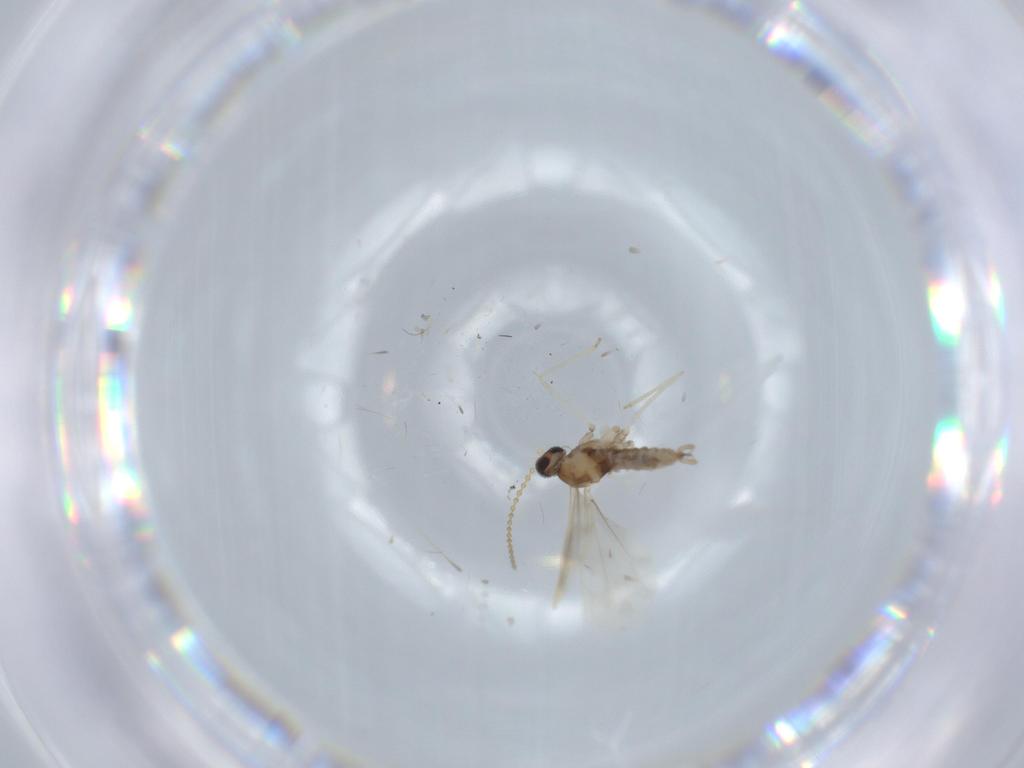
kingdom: Animalia
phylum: Arthropoda
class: Insecta
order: Diptera
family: Cecidomyiidae
